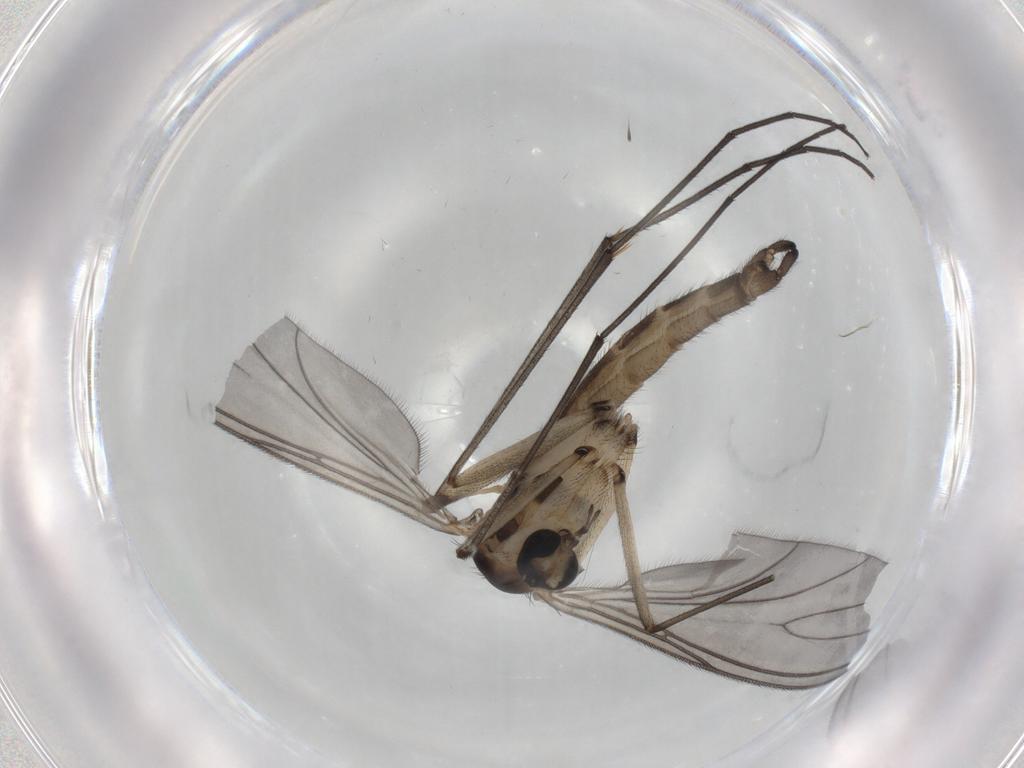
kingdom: Animalia
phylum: Arthropoda
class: Insecta
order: Diptera
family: Sciaridae
